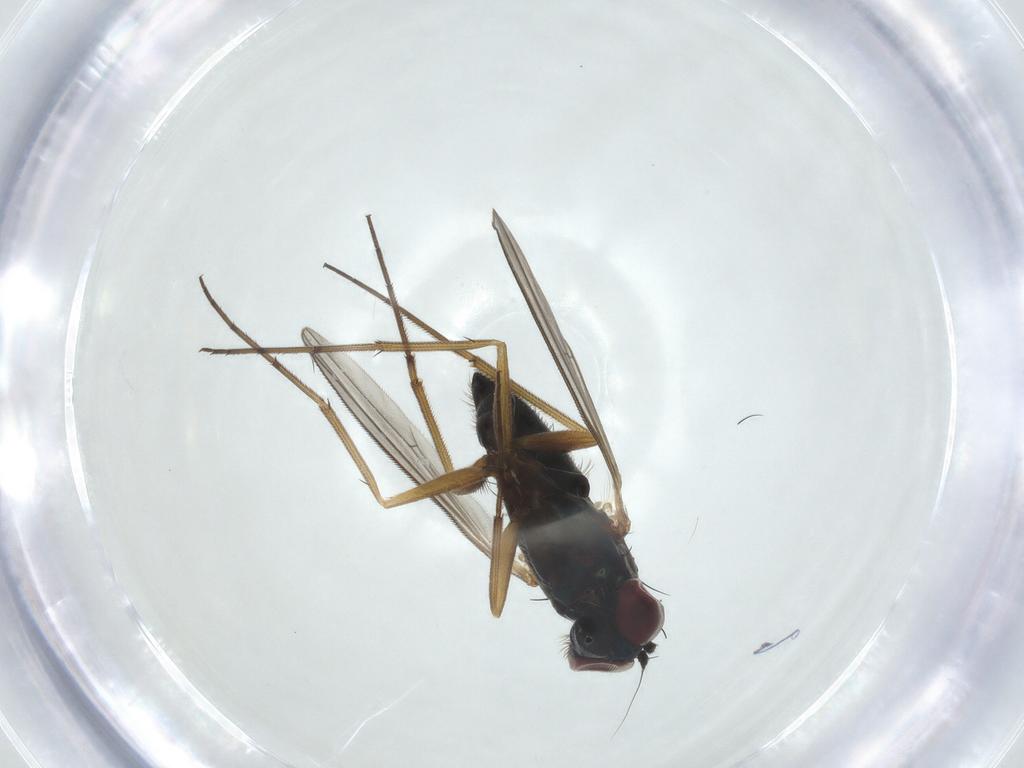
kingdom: Animalia
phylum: Arthropoda
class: Insecta
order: Diptera
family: Dolichopodidae
